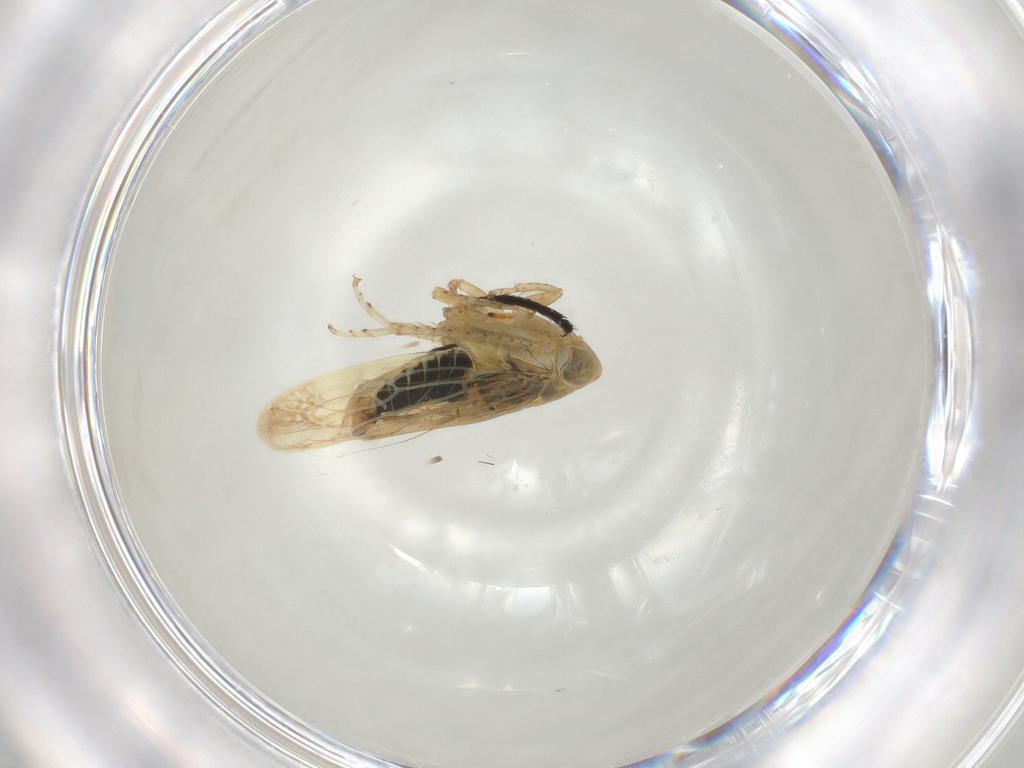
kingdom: Animalia
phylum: Arthropoda
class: Insecta
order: Hemiptera
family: Cicadellidae
